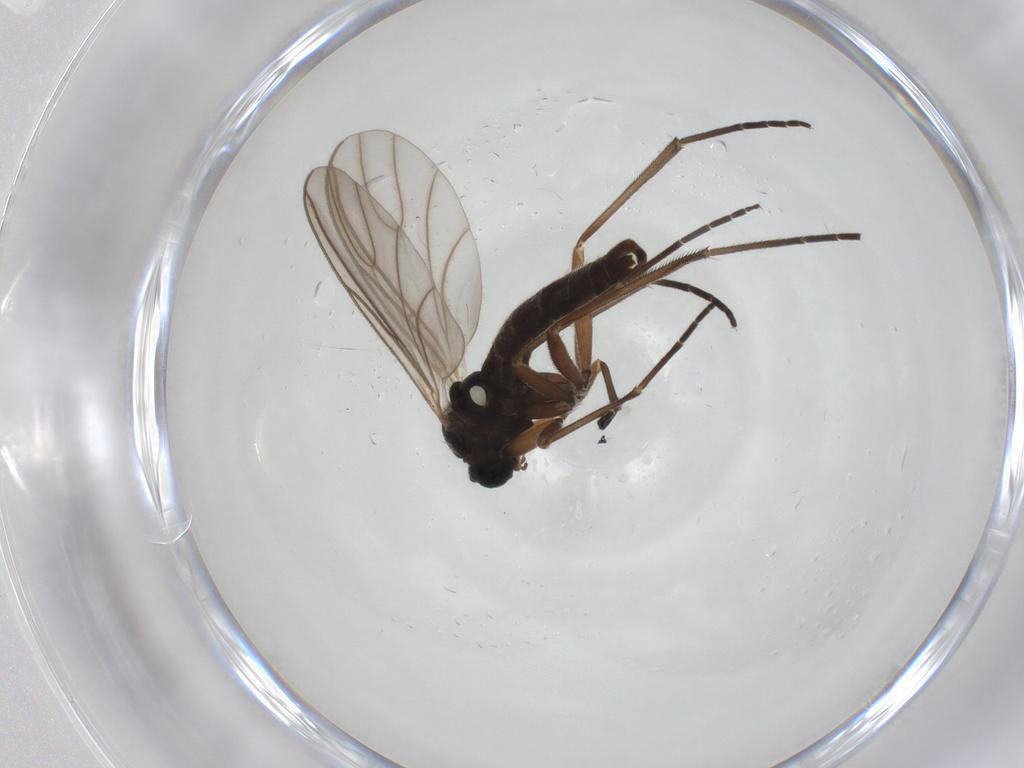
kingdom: Animalia
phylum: Arthropoda
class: Insecta
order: Diptera
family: Sciaridae
